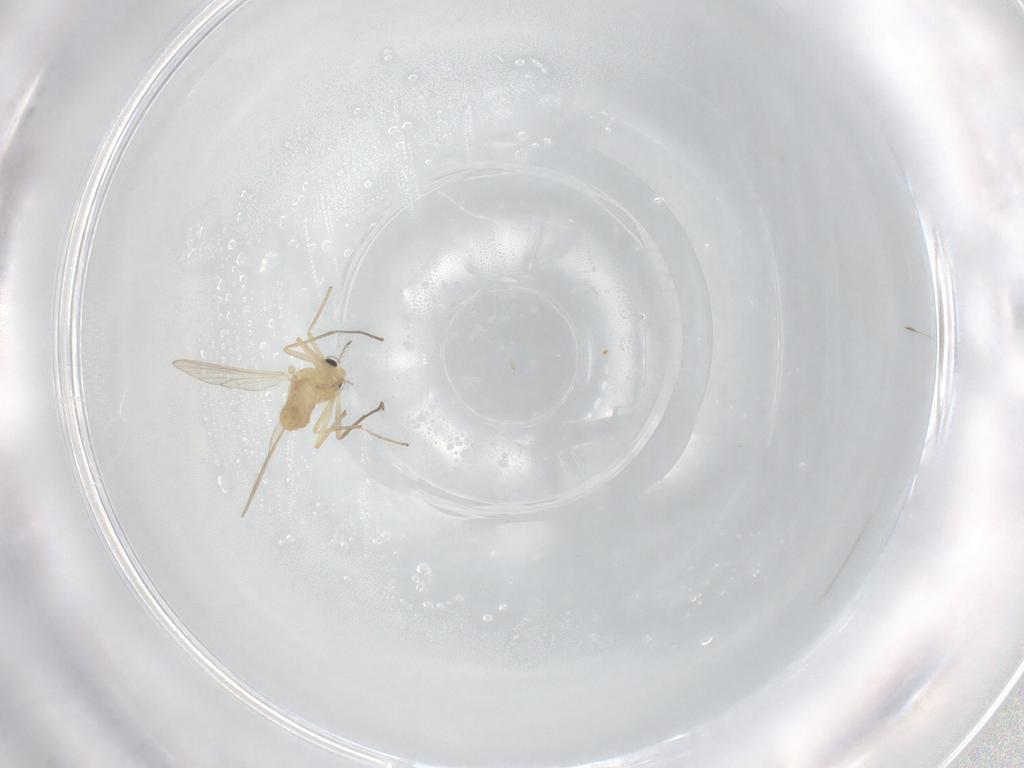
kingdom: Animalia
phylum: Arthropoda
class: Insecta
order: Diptera
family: Chironomidae
